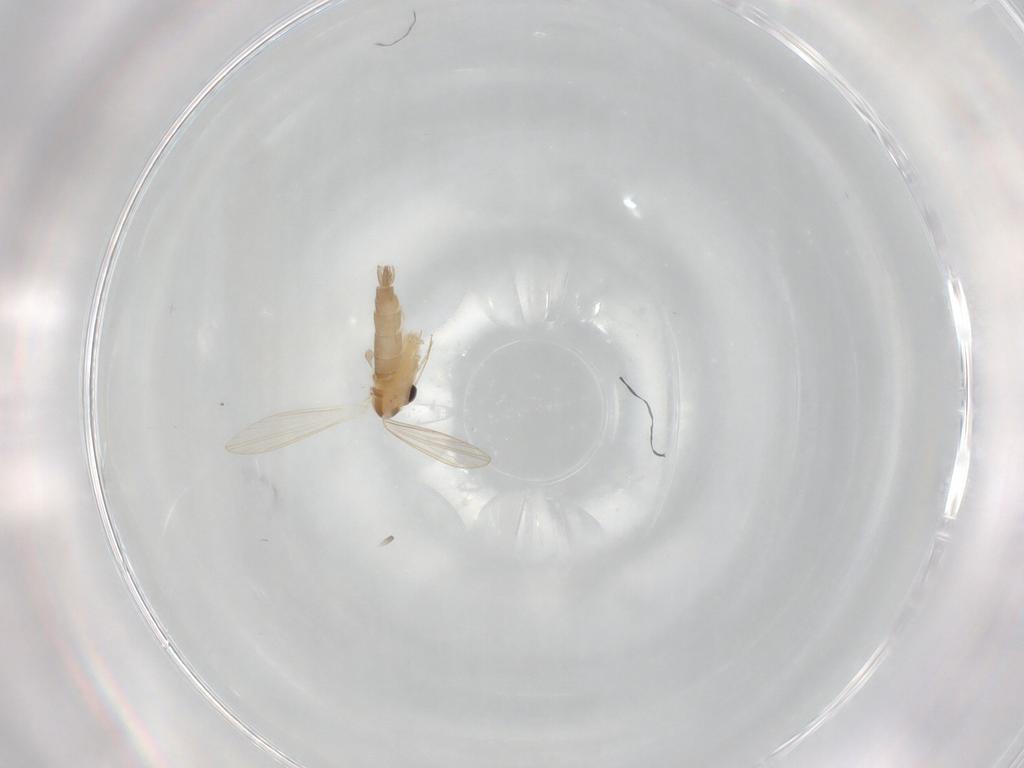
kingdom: Animalia
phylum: Arthropoda
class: Insecta
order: Diptera
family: Psychodidae
